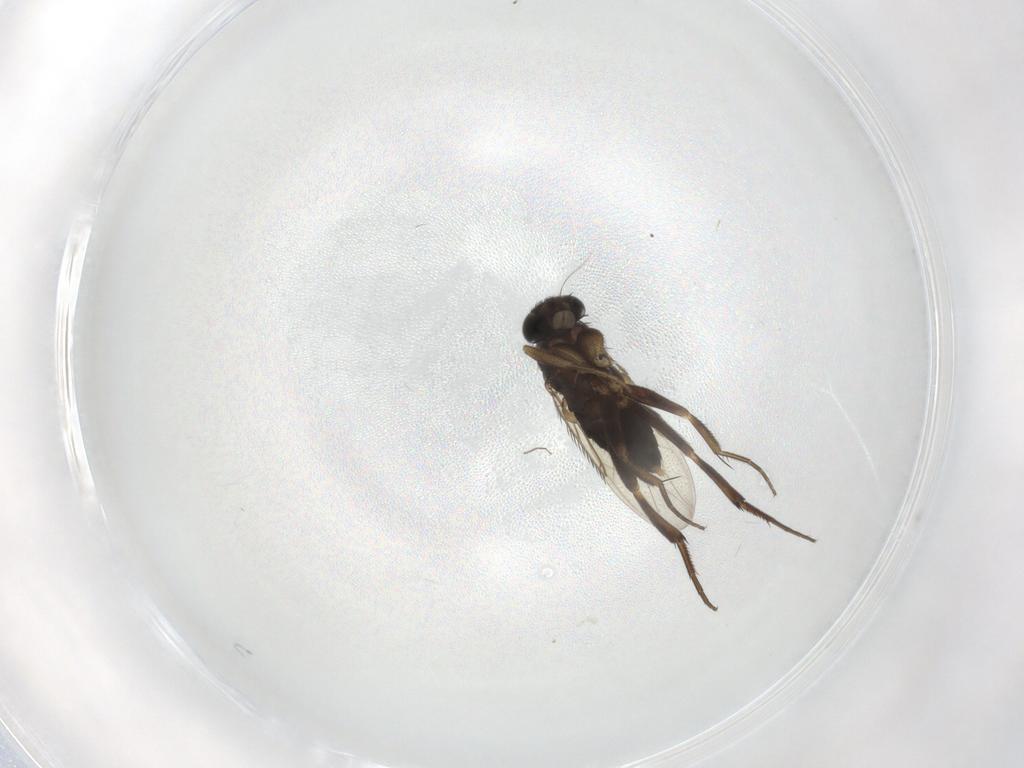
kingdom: Animalia
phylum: Arthropoda
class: Insecta
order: Diptera
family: Phoridae
